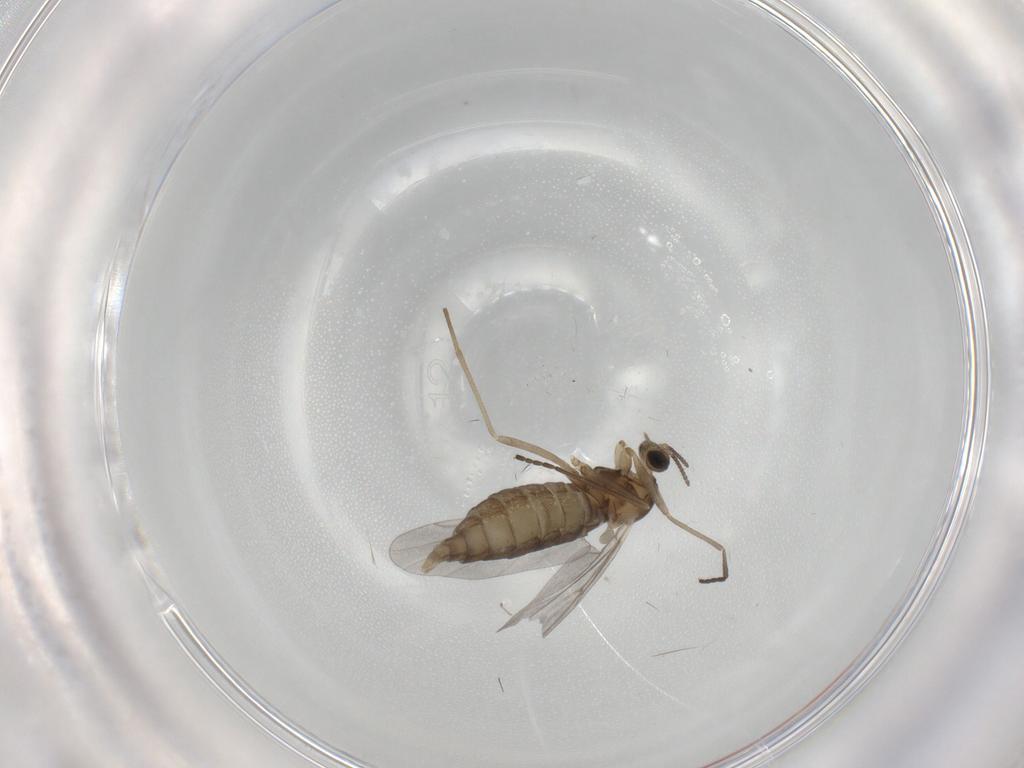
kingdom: Animalia
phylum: Arthropoda
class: Insecta
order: Diptera
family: Cecidomyiidae
